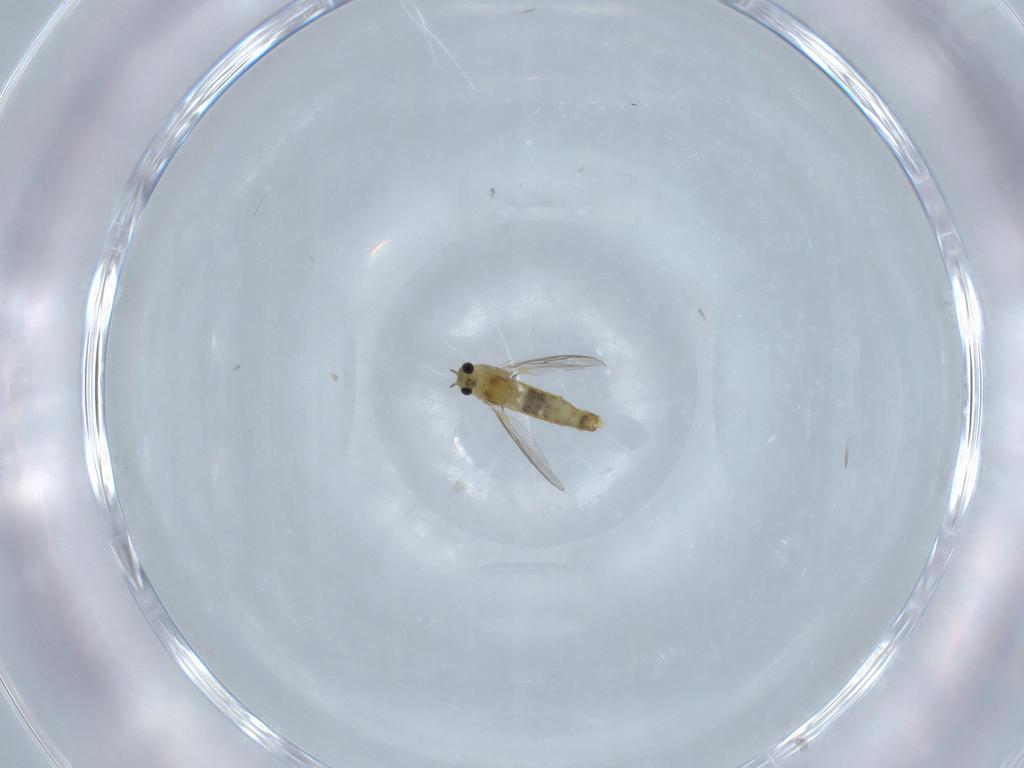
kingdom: Animalia
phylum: Arthropoda
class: Insecta
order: Diptera
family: Chironomidae
